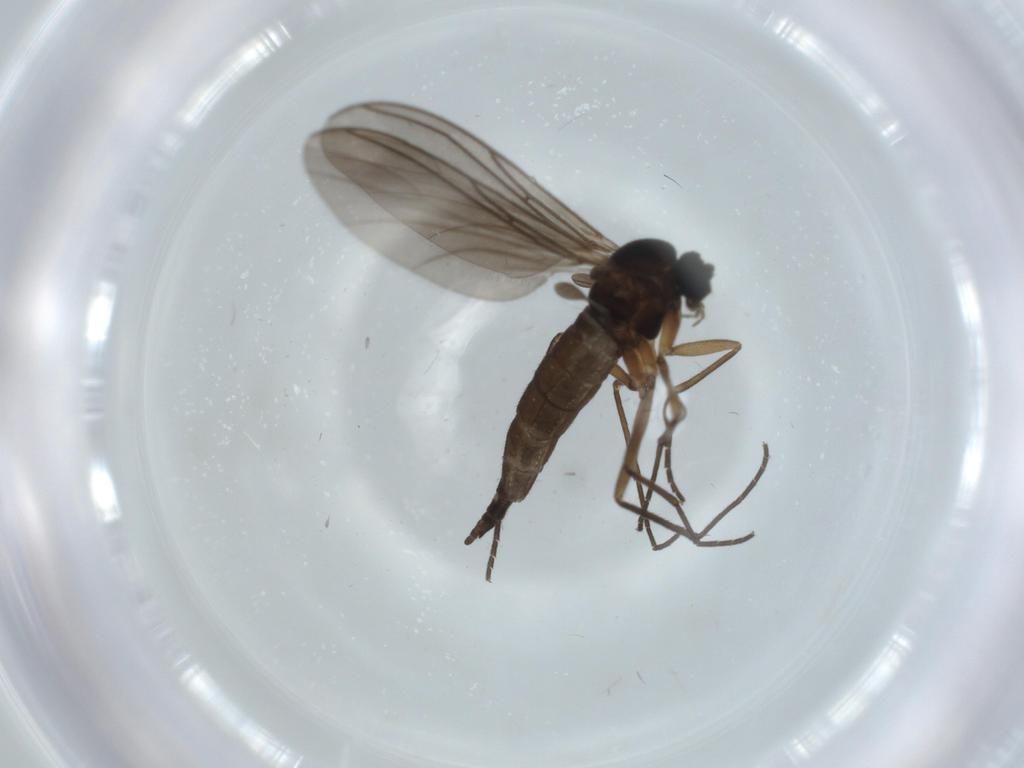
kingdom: Animalia
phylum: Arthropoda
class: Insecta
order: Diptera
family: Sciaridae
